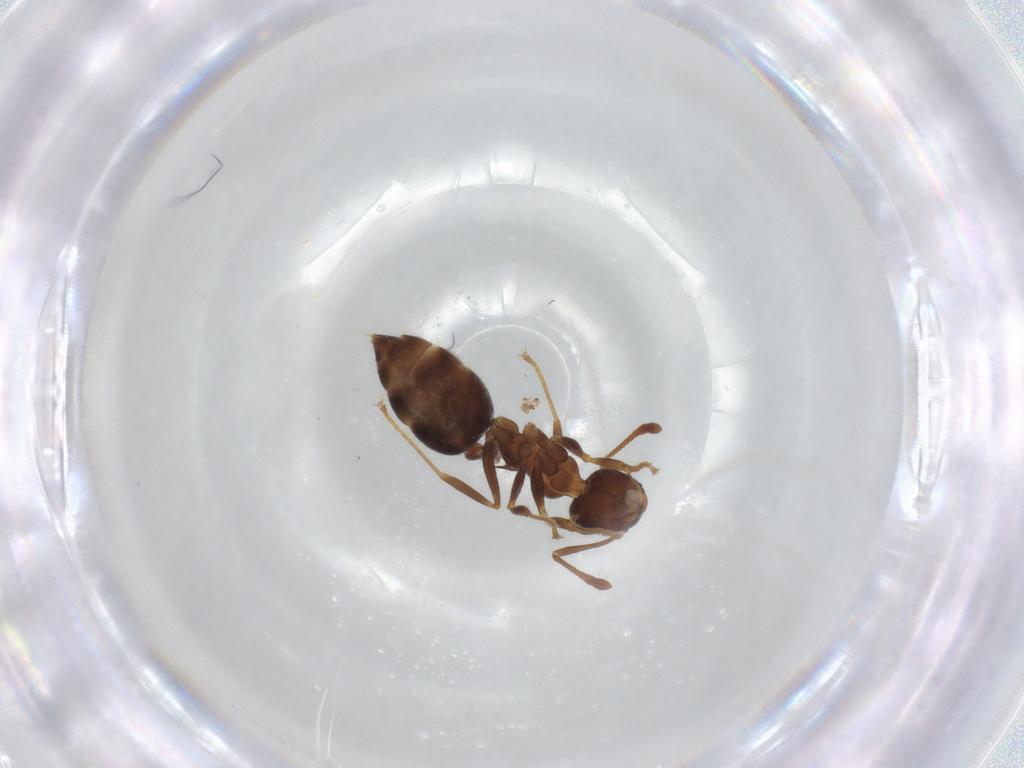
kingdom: Animalia
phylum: Arthropoda
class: Insecta
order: Hymenoptera
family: Formicidae
